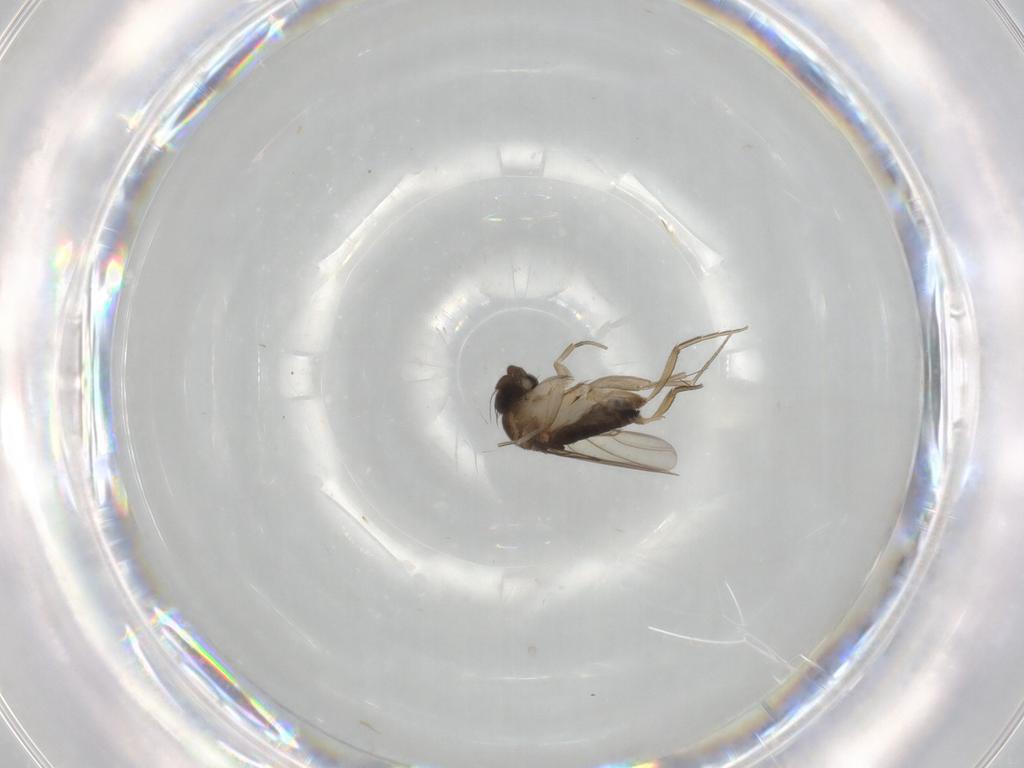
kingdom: Animalia
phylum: Arthropoda
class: Insecta
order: Diptera
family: Phoridae
